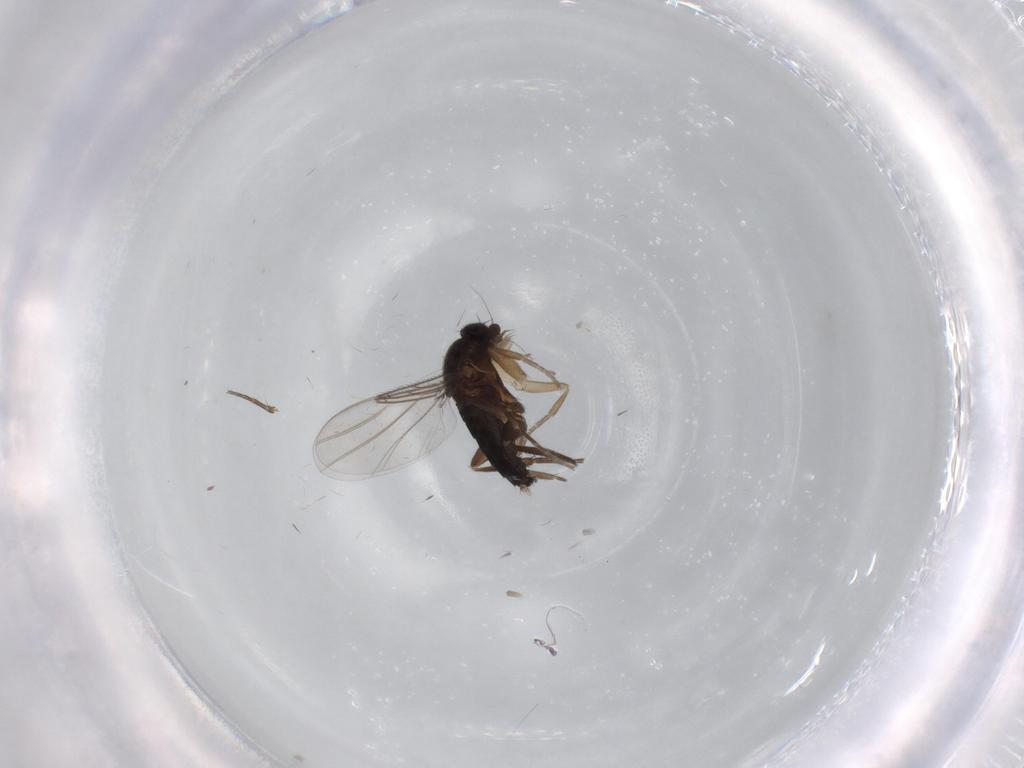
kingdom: Animalia
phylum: Arthropoda
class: Insecta
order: Diptera
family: Phoridae
